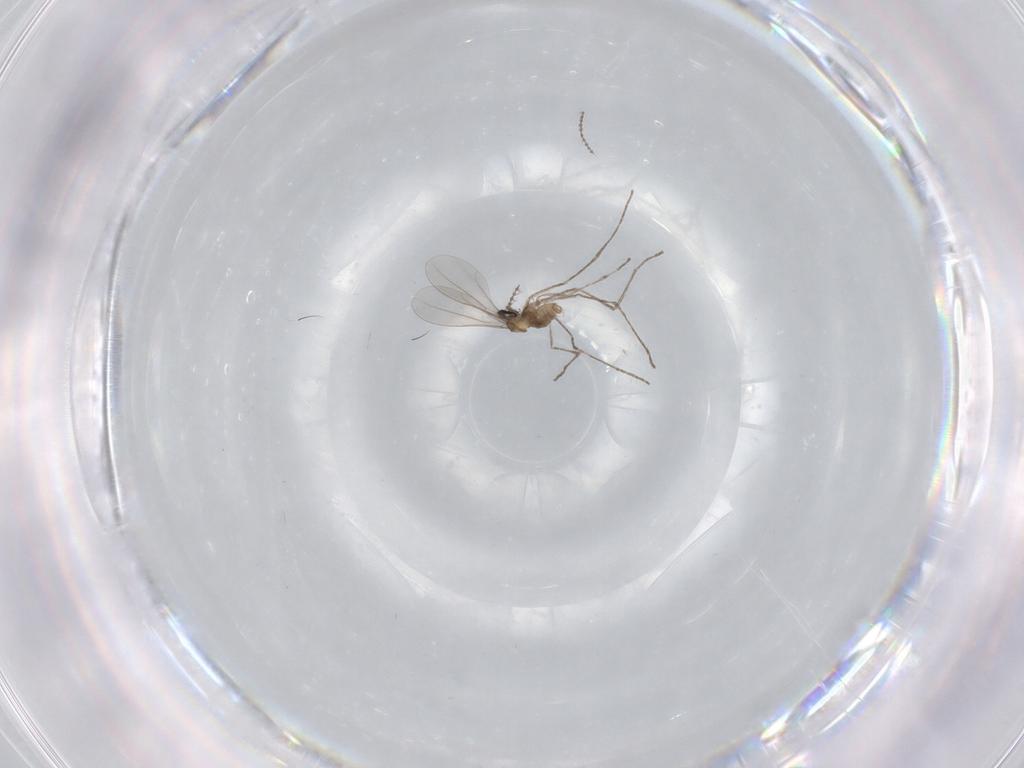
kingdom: Animalia
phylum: Arthropoda
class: Insecta
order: Diptera
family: Cecidomyiidae
